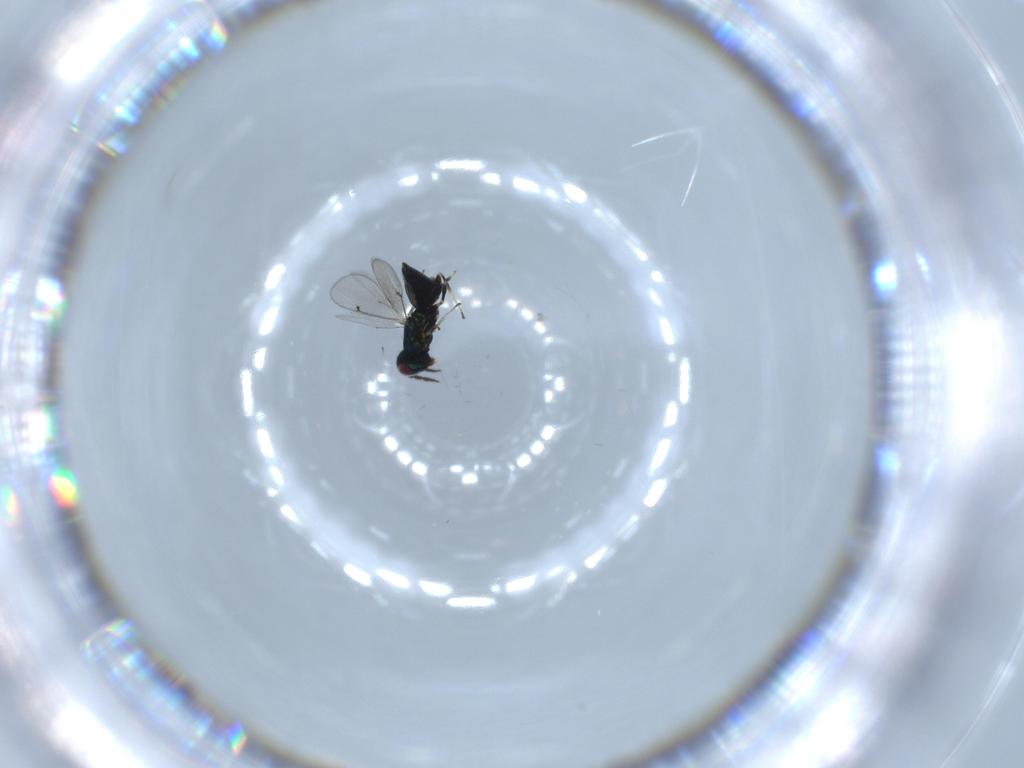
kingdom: Animalia
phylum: Arthropoda
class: Insecta
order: Hymenoptera
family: Eulophidae
